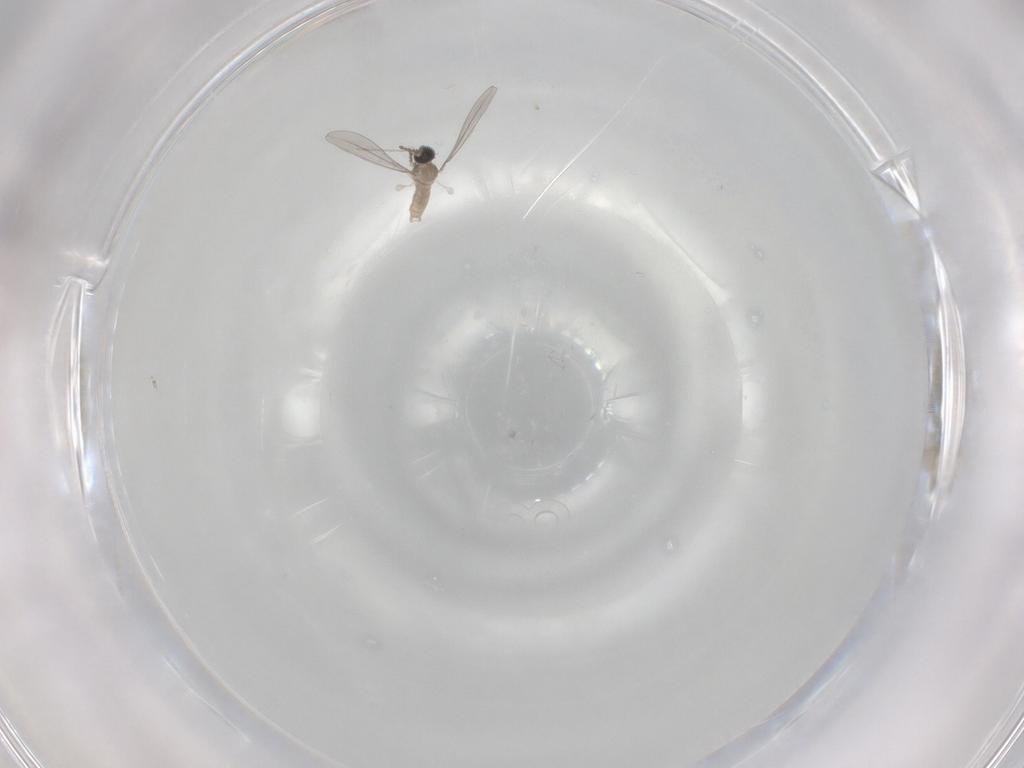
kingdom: Animalia
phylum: Arthropoda
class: Insecta
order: Diptera
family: Cecidomyiidae
